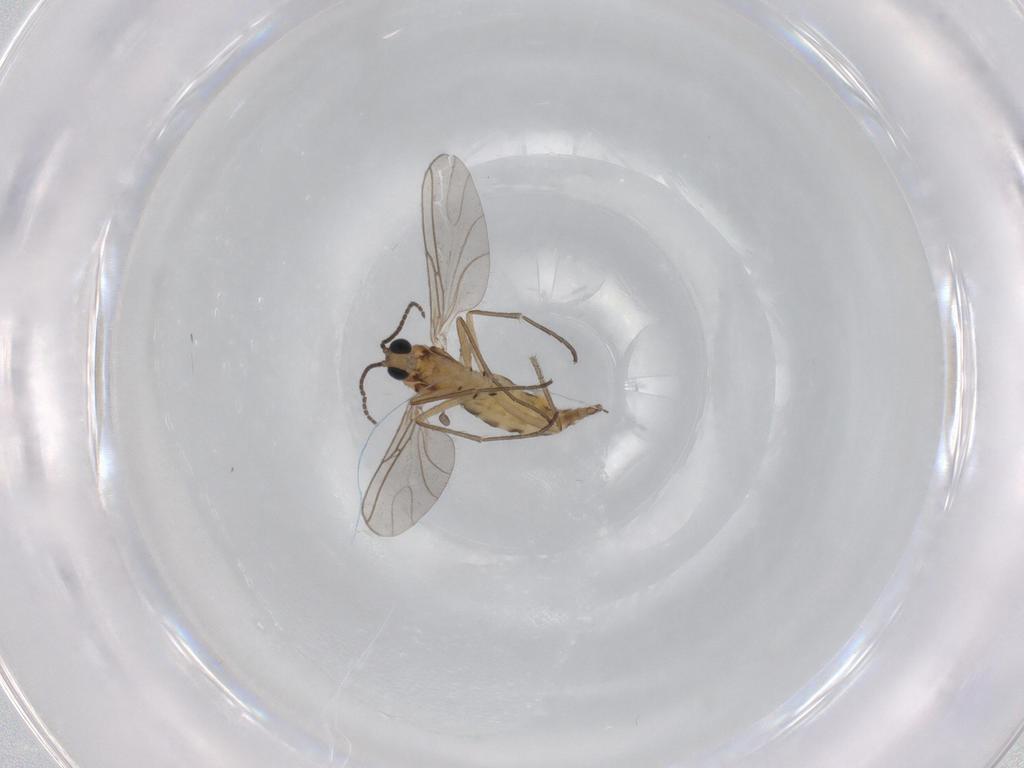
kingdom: Animalia
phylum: Arthropoda
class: Insecta
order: Diptera
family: Sciaridae
